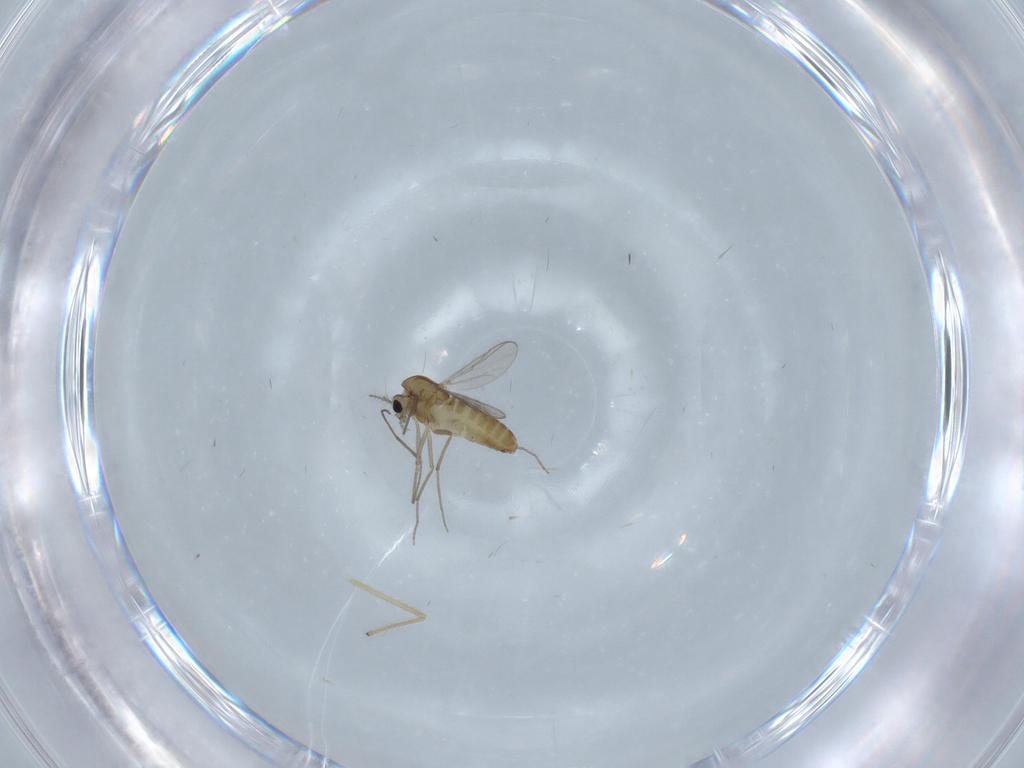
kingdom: Animalia
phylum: Arthropoda
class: Insecta
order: Diptera
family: Chironomidae
